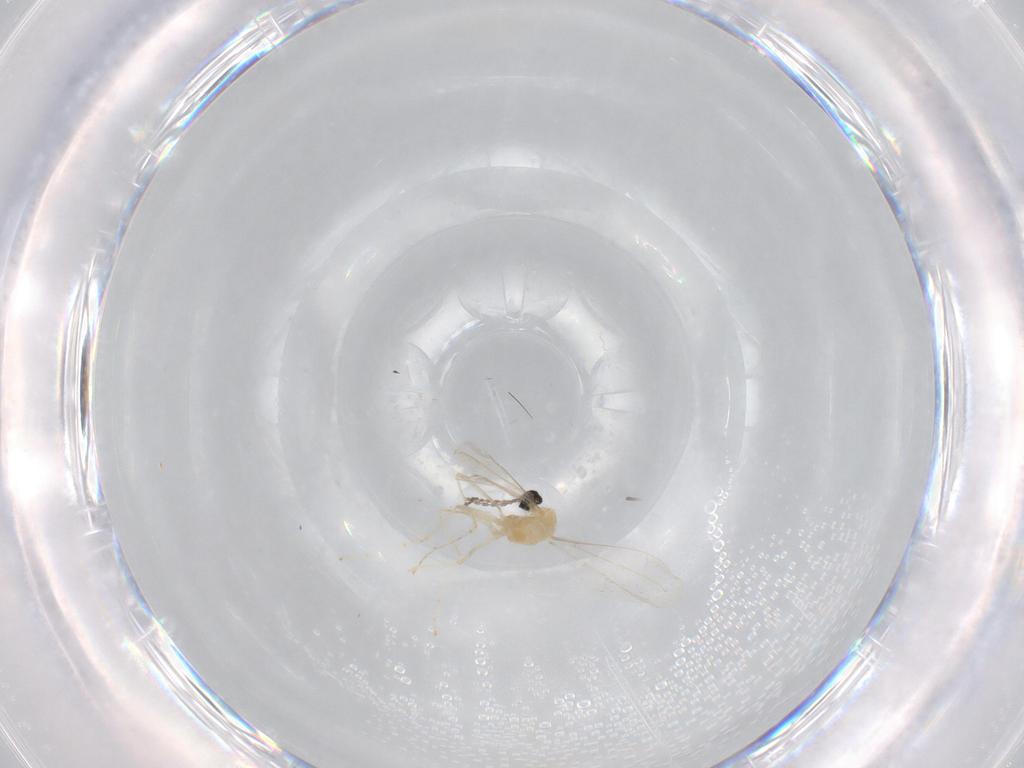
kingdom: Animalia
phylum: Arthropoda
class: Insecta
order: Diptera
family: Cecidomyiidae
